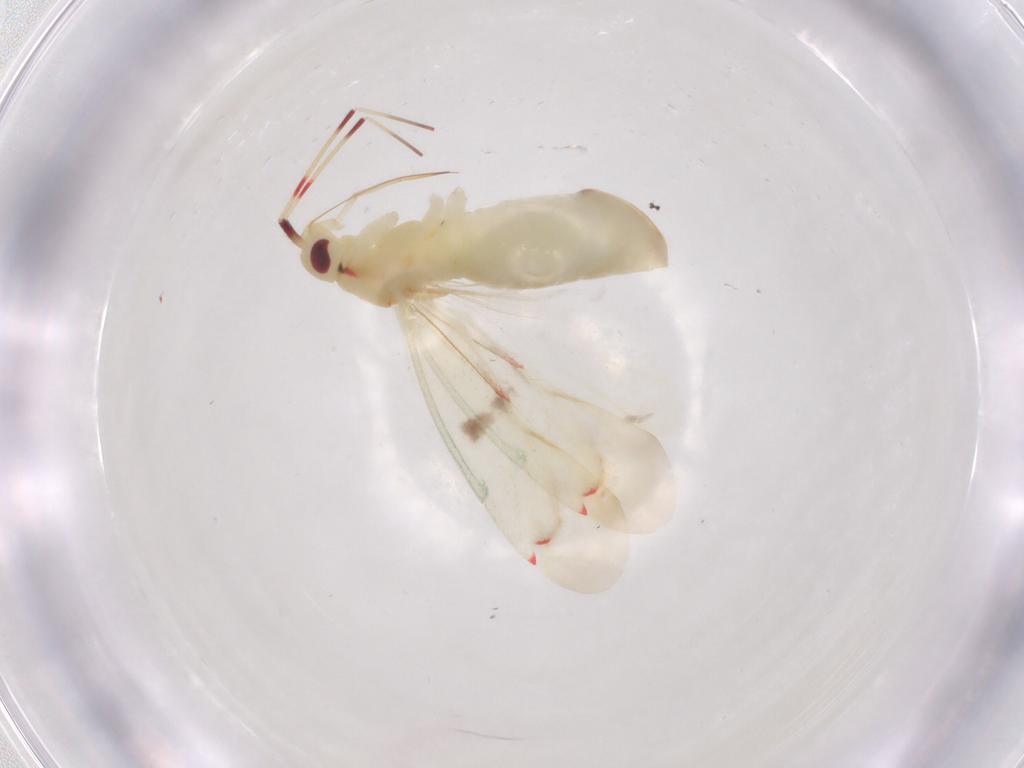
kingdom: Animalia
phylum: Arthropoda
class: Insecta
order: Hemiptera
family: Miridae
